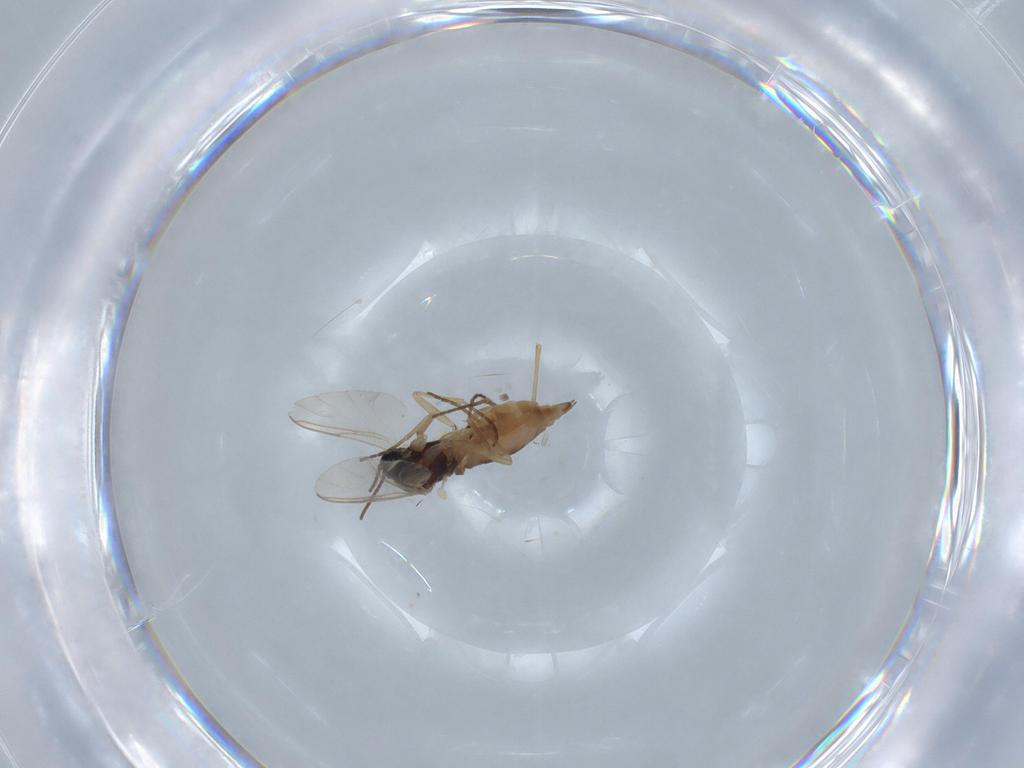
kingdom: Animalia
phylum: Arthropoda
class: Insecta
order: Diptera
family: Sciaridae
